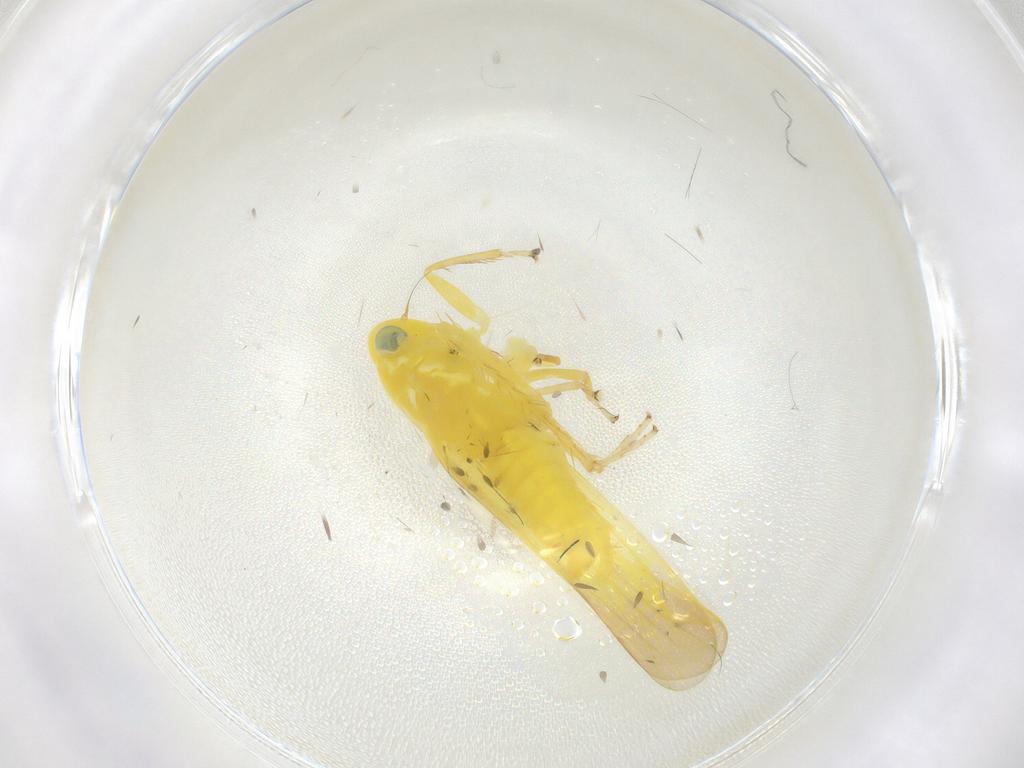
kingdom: Animalia
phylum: Arthropoda
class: Insecta
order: Hemiptera
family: Cicadellidae
